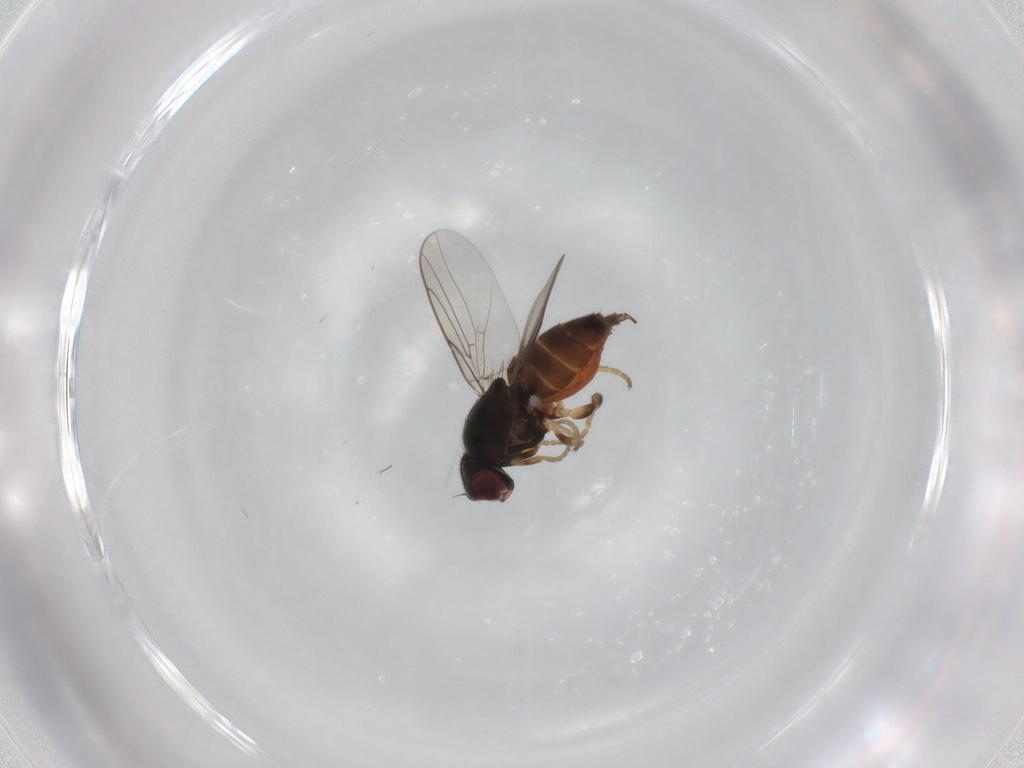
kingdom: Animalia
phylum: Arthropoda
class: Insecta
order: Diptera
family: Chloropidae
